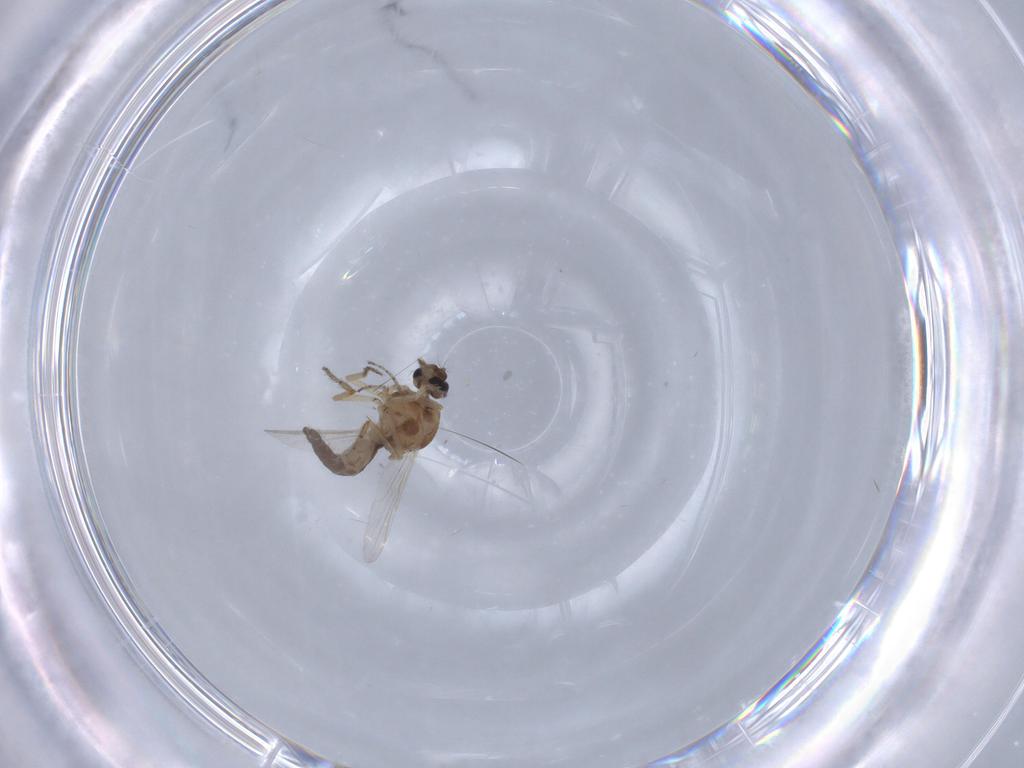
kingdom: Animalia
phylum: Arthropoda
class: Insecta
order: Diptera
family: Ceratopogonidae
